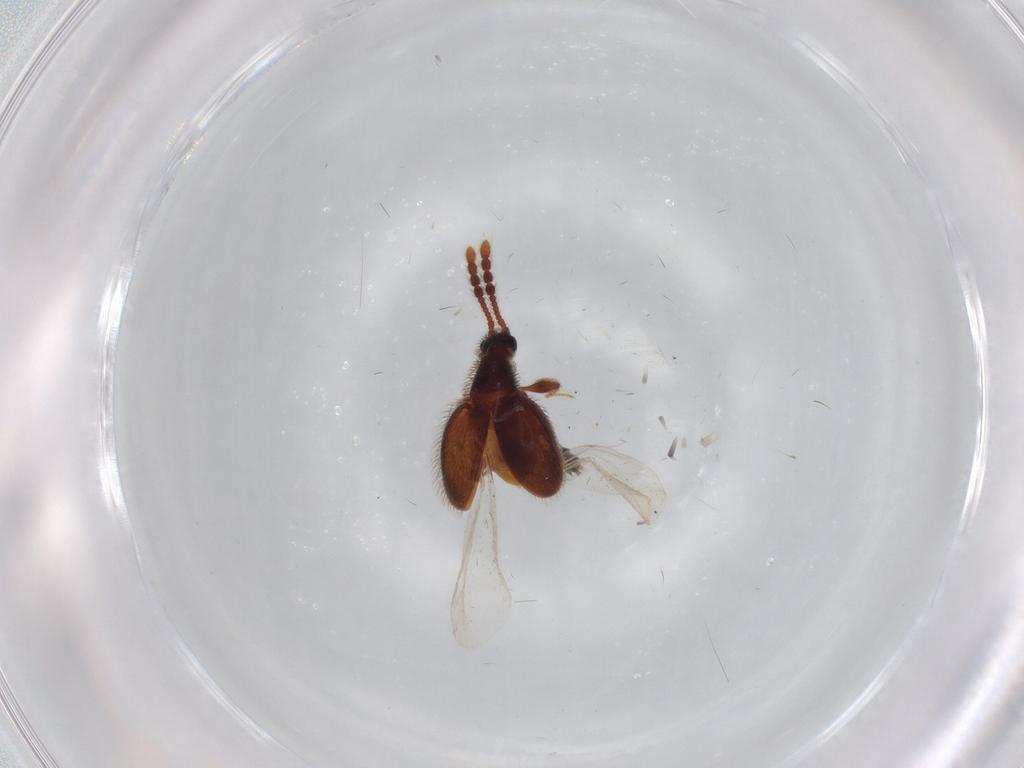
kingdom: Animalia
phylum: Arthropoda
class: Insecta
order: Coleoptera
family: Staphylinidae
